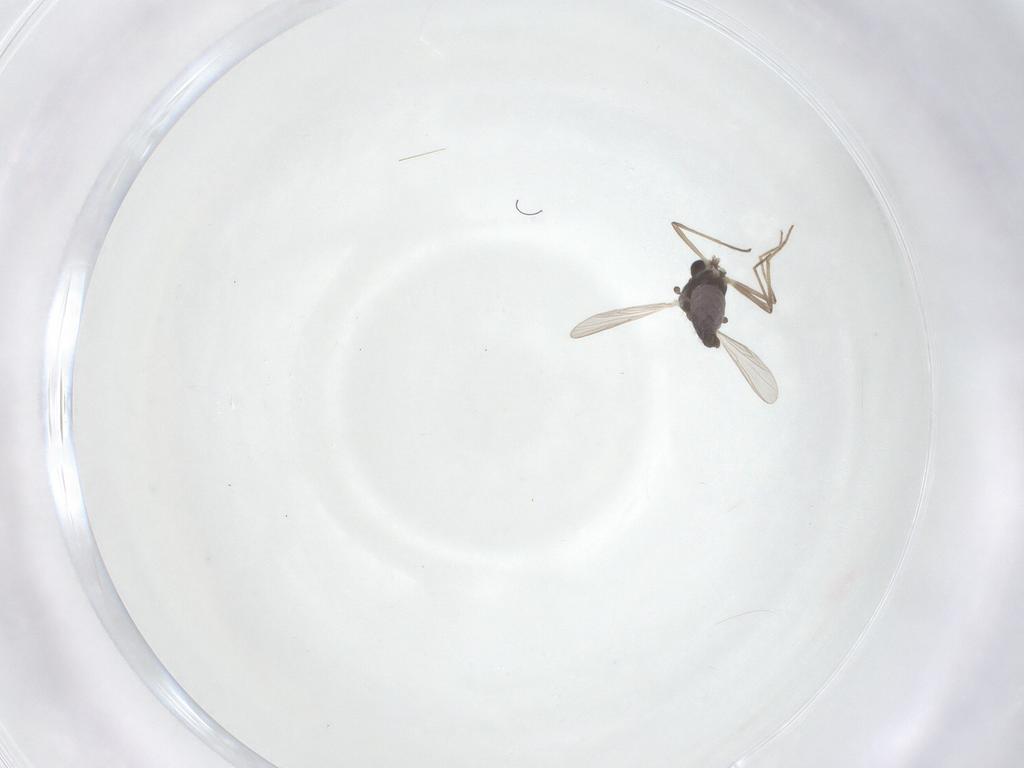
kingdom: Animalia
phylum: Arthropoda
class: Insecta
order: Diptera
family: Chironomidae
